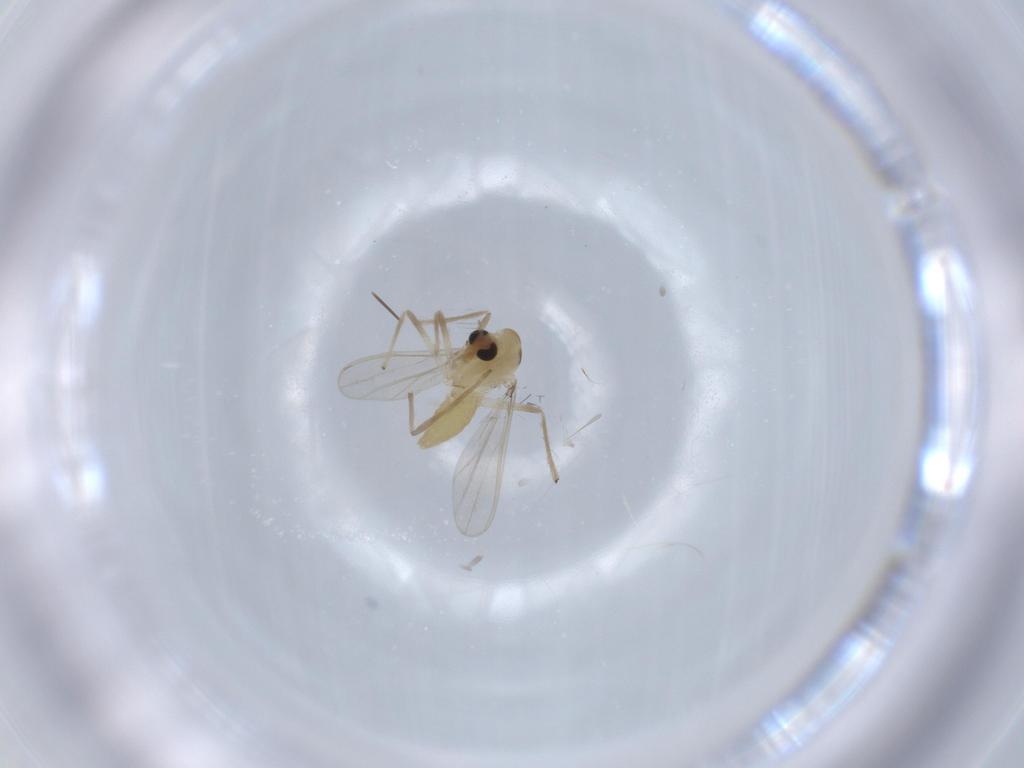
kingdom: Animalia
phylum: Arthropoda
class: Insecta
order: Diptera
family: Chironomidae
